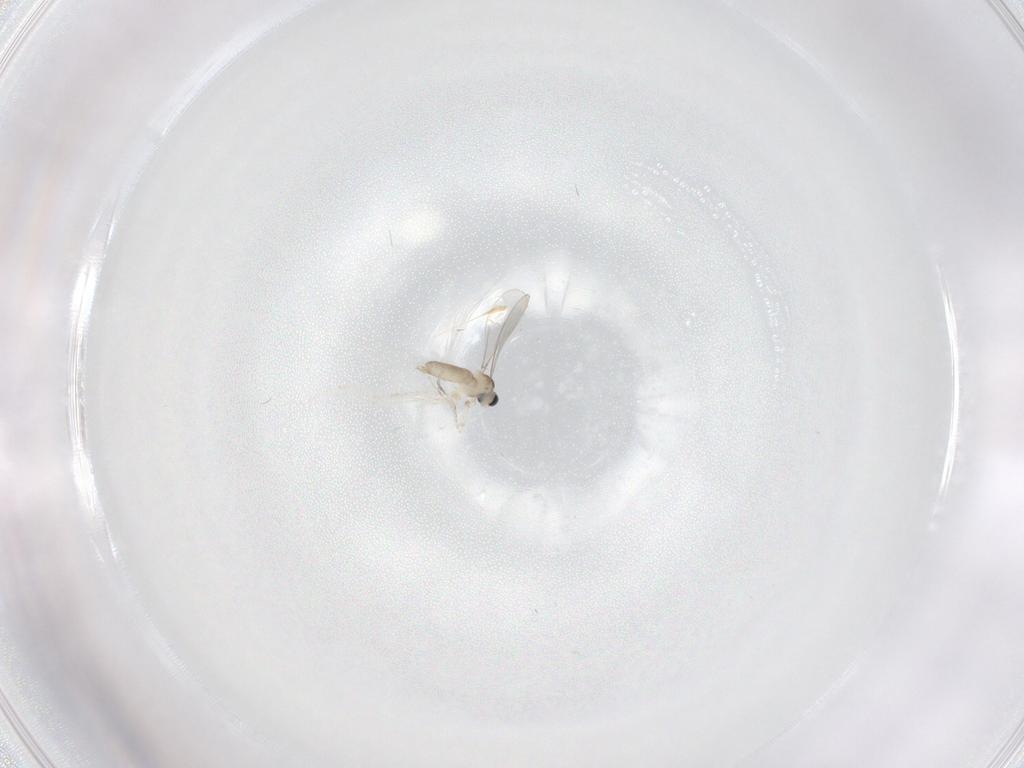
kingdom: Animalia
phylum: Arthropoda
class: Insecta
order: Diptera
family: Cecidomyiidae
